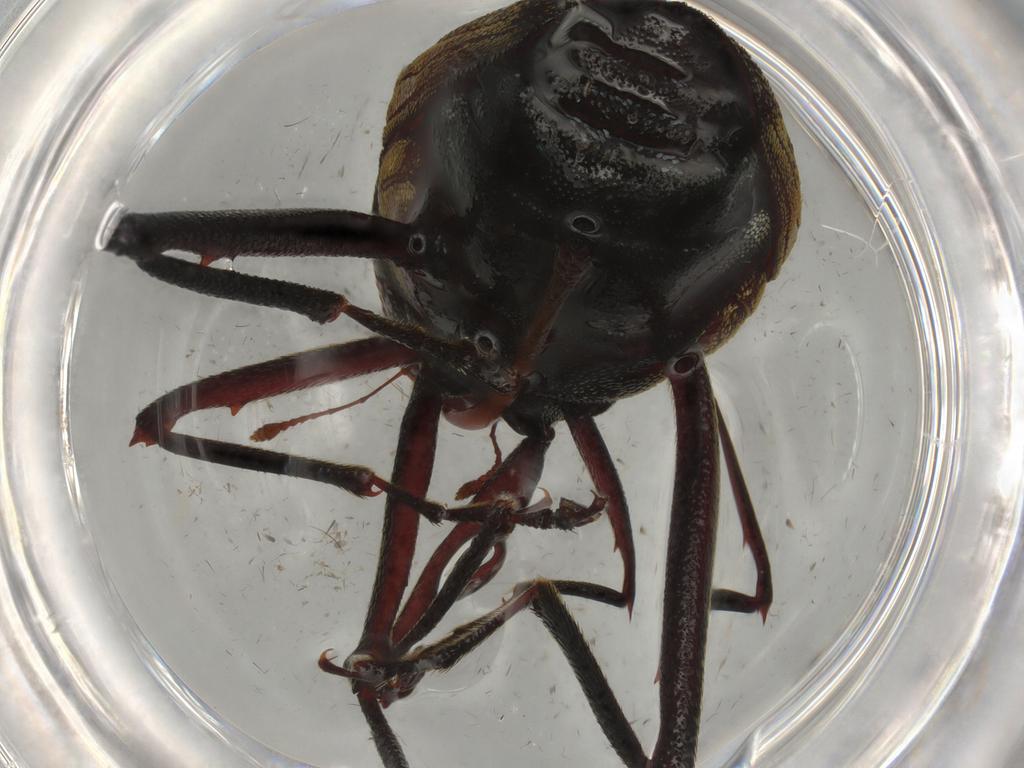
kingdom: Animalia
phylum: Arthropoda
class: Insecta
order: Coleoptera
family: Curculionidae
